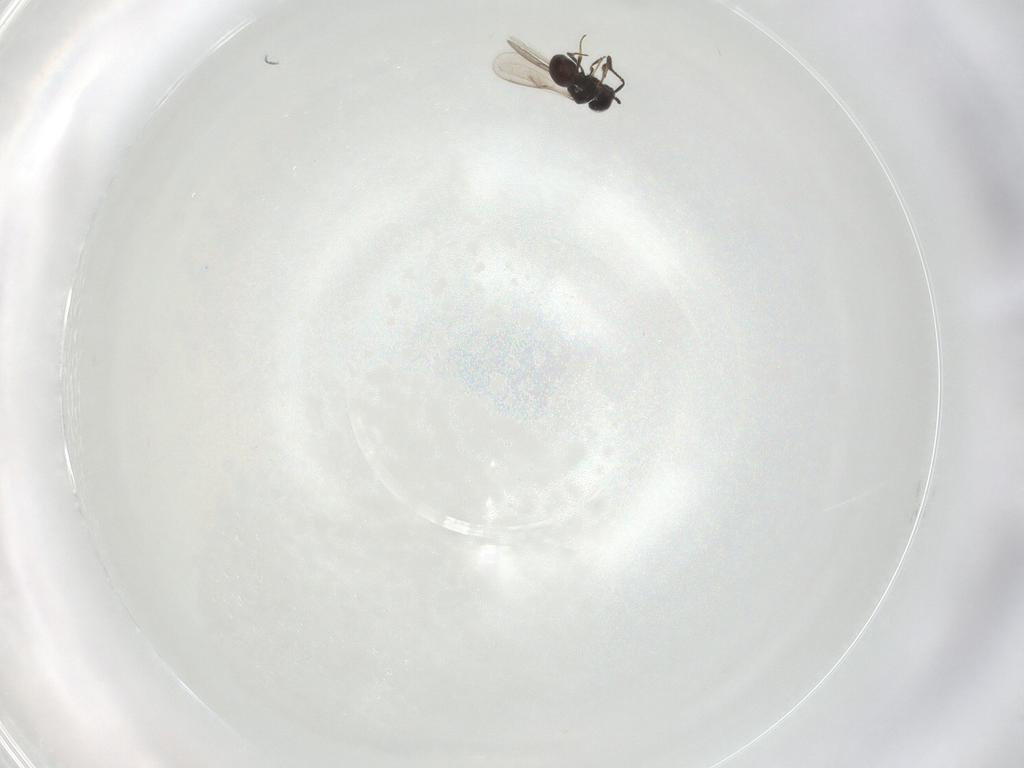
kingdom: Animalia
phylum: Arthropoda
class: Insecta
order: Hymenoptera
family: Scelionidae
